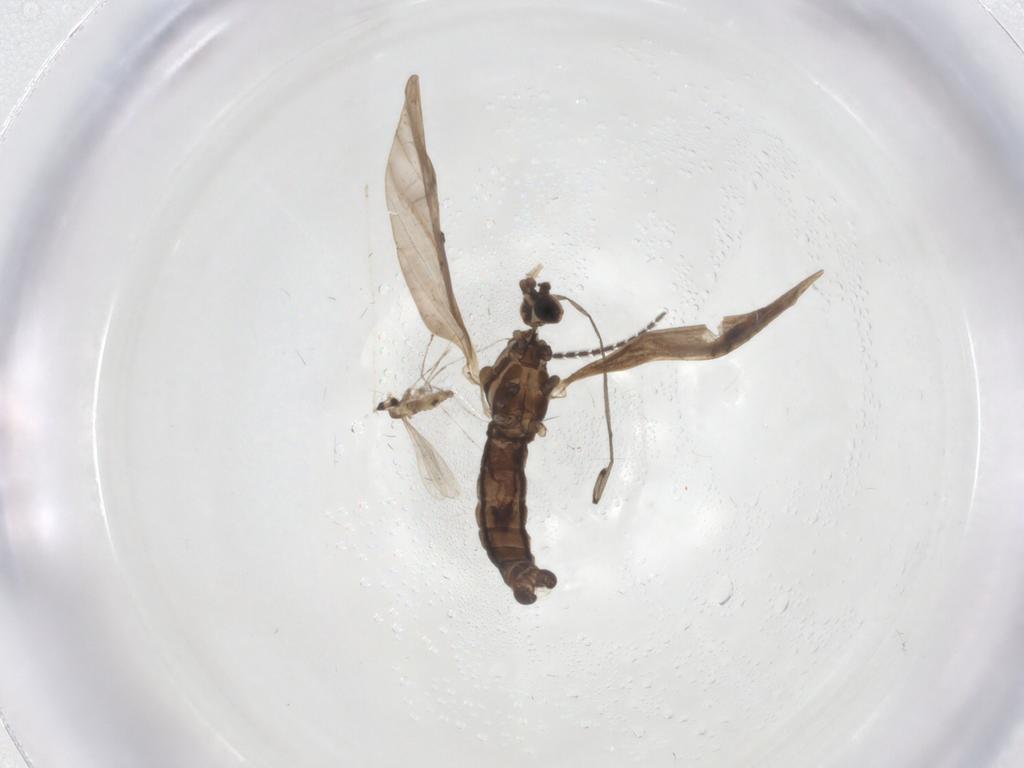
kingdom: Animalia
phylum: Arthropoda
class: Insecta
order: Diptera
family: Limoniidae
